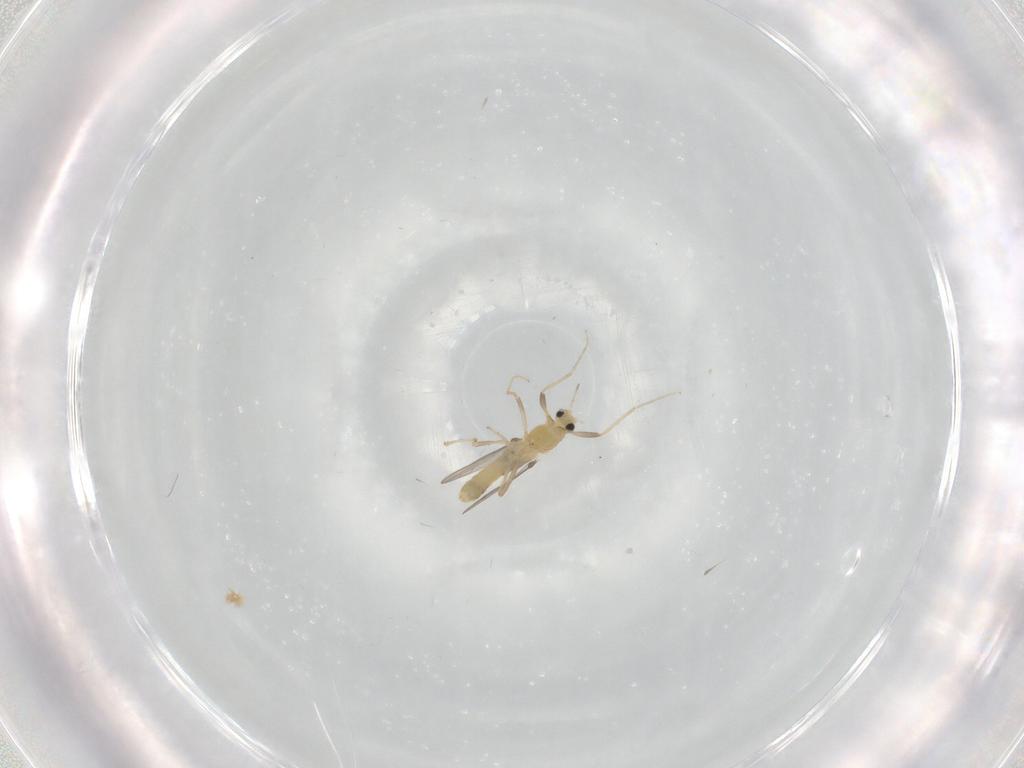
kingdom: Animalia
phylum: Arthropoda
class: Insecta
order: Diptera
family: Chironomidae
